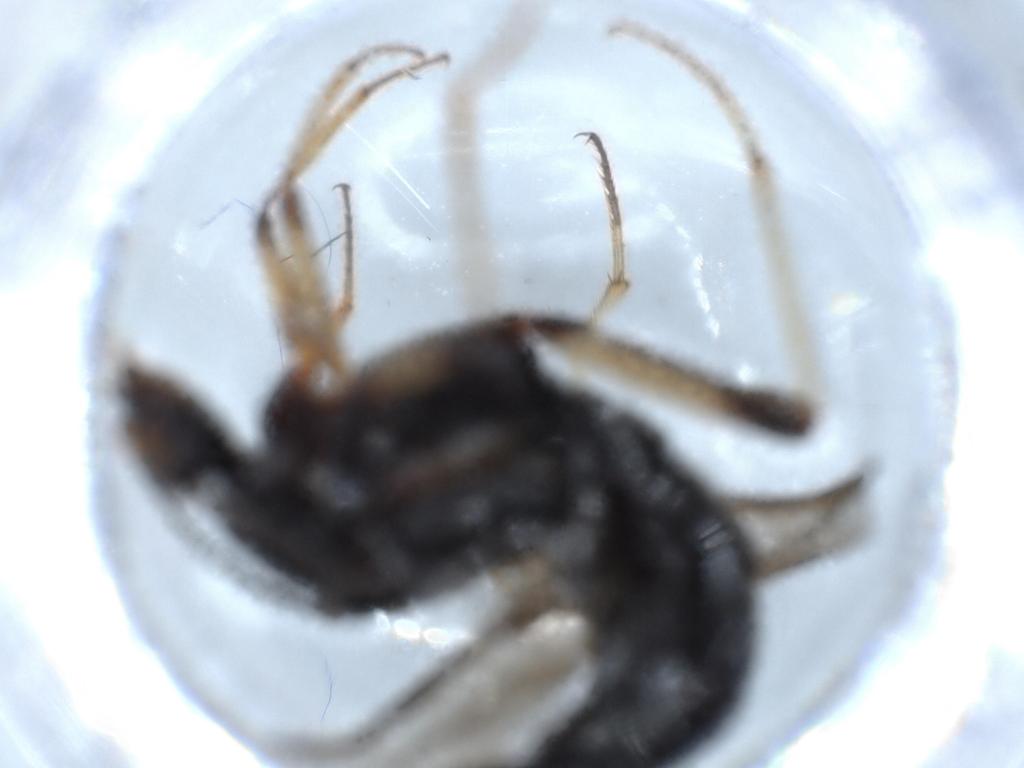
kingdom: Animalia
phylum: Arthropoda
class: Insecta
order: Coleoptera
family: Staphylinidae
